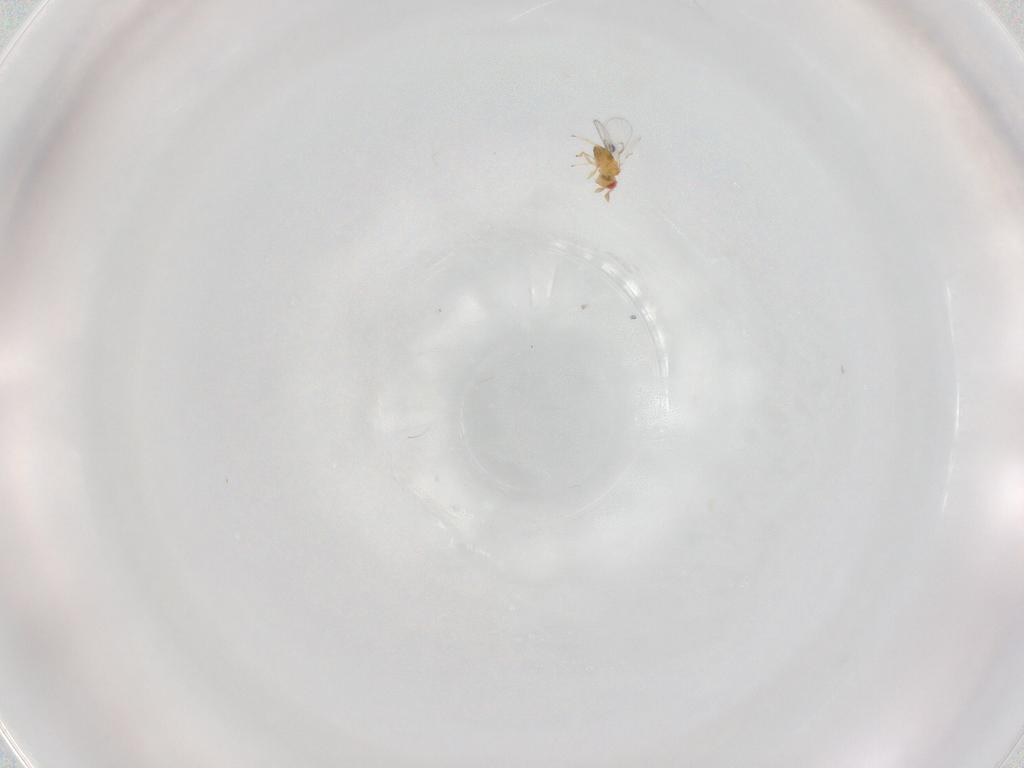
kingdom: Animalia
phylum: Arthropoda
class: Insecta
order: Hymenoptera
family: Trichogrammatidae
